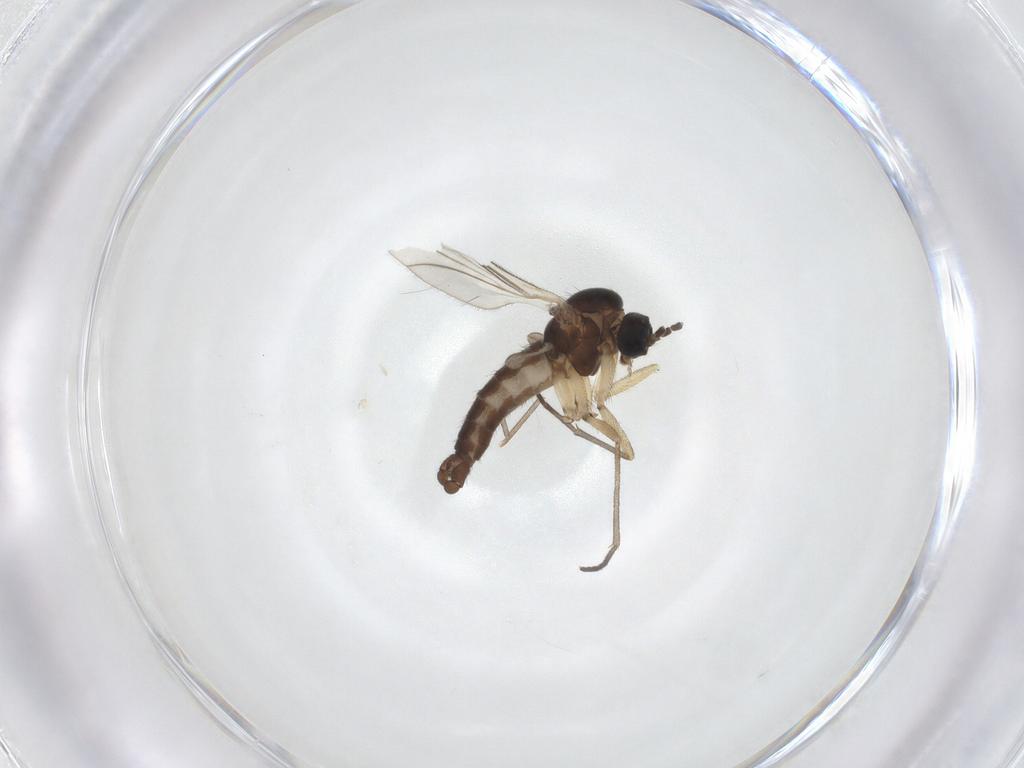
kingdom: Animalia
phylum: Arthropoda
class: Insecta
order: Diptera
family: Sciaridae
